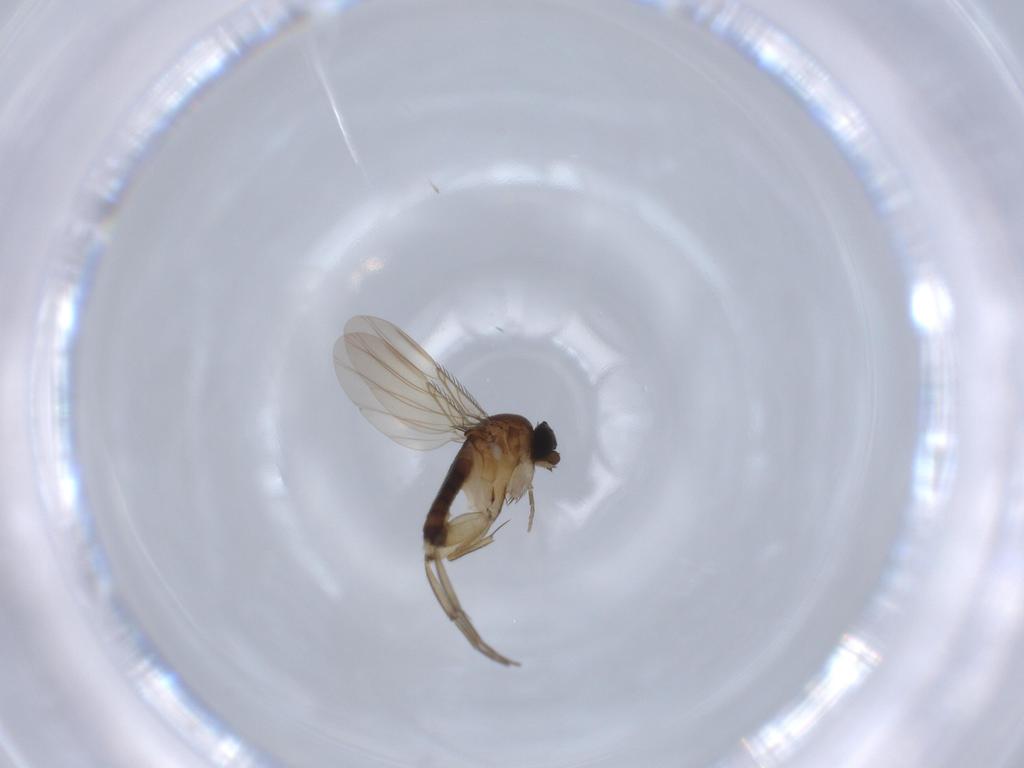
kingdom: Animalia
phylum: Arthropoda
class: Insecta
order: Diptera
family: Phoridae
